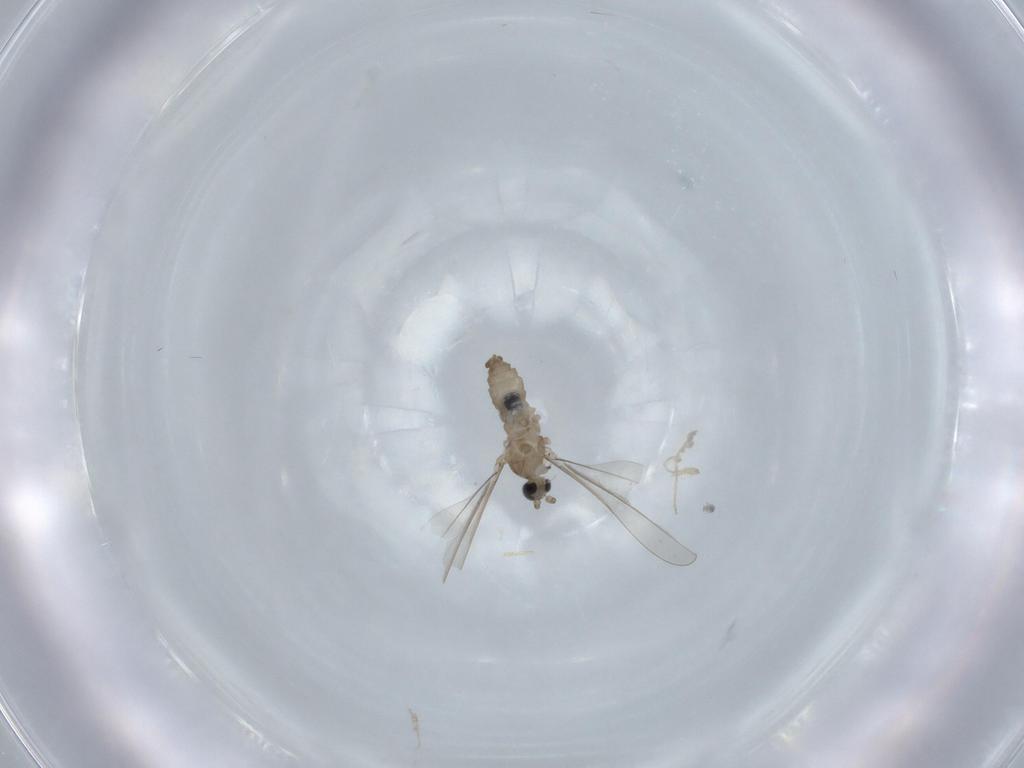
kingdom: Animalia
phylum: Arthropoda
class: Insecta
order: Diptera
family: Cecidomyiidae
